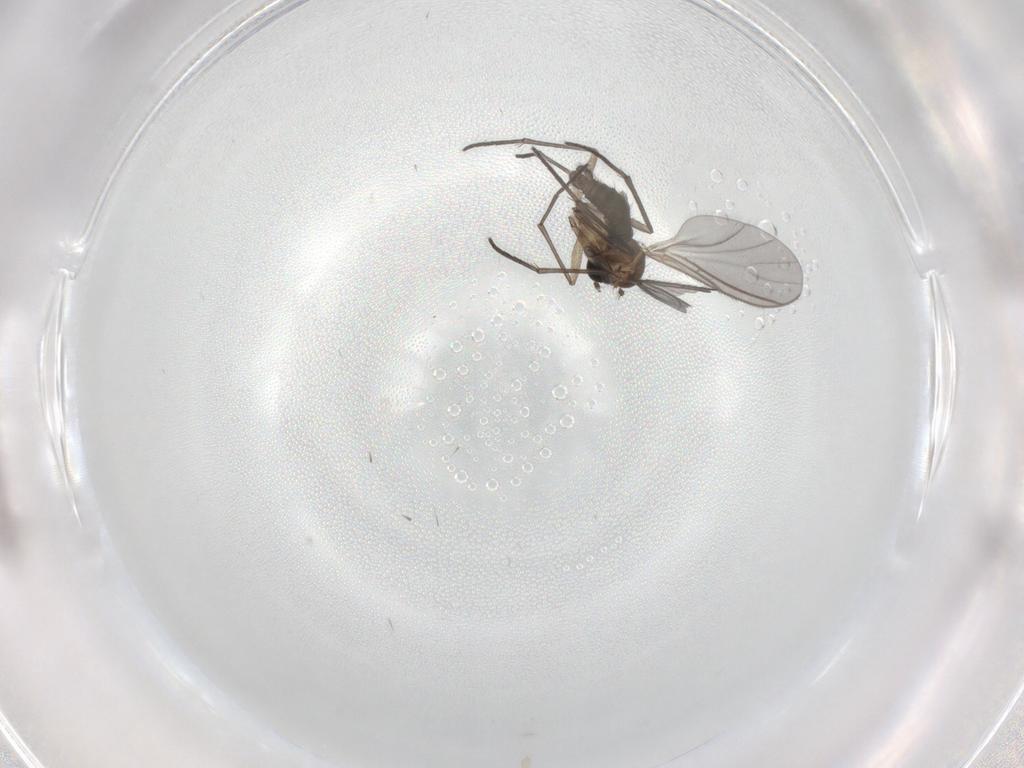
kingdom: Animalia
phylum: Arthropoda
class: Insecta
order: Diptera
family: Sciaridae
